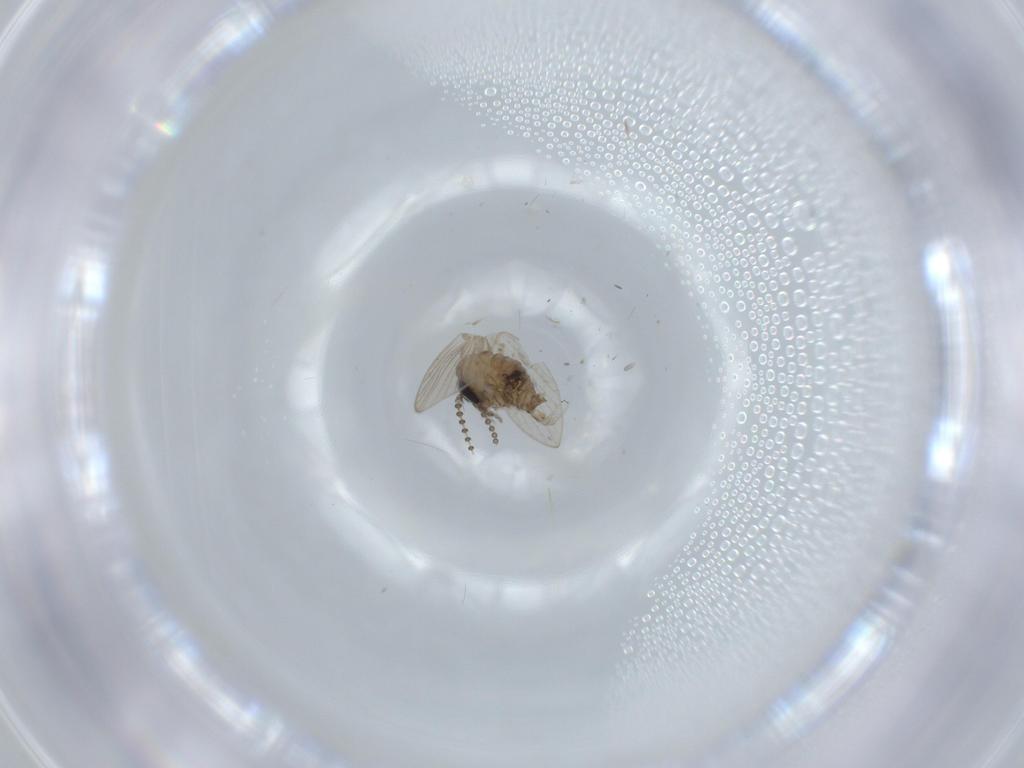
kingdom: Animalia
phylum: Arthropoda
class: Insecta
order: Diptera
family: Psychodidae
